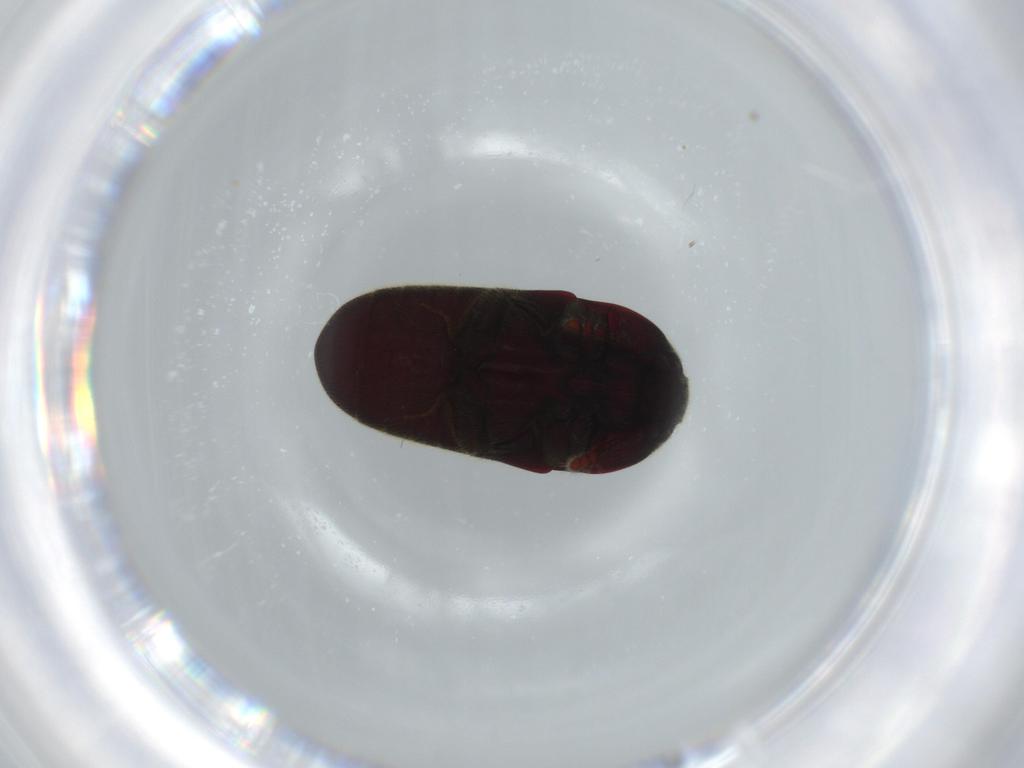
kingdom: Animalia
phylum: Arthropoda
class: Insecta
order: Coleoptera
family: Throscidae
